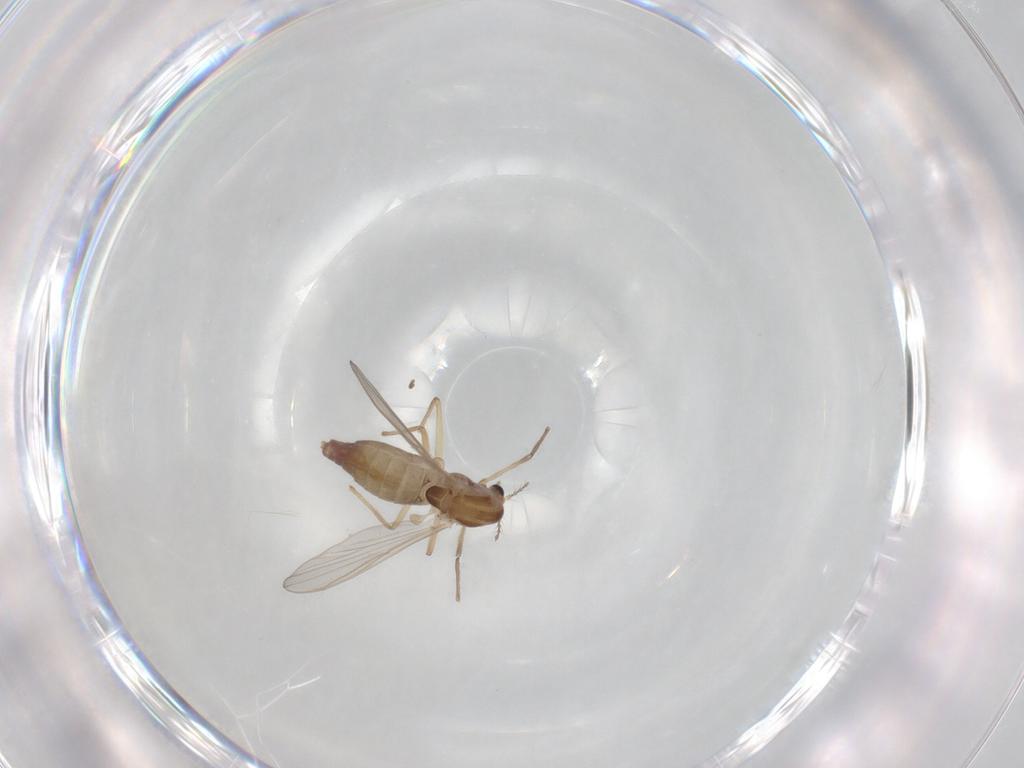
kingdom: Animalia
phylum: Arthropoda
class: Insecta
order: Diptera
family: Chironomidae
